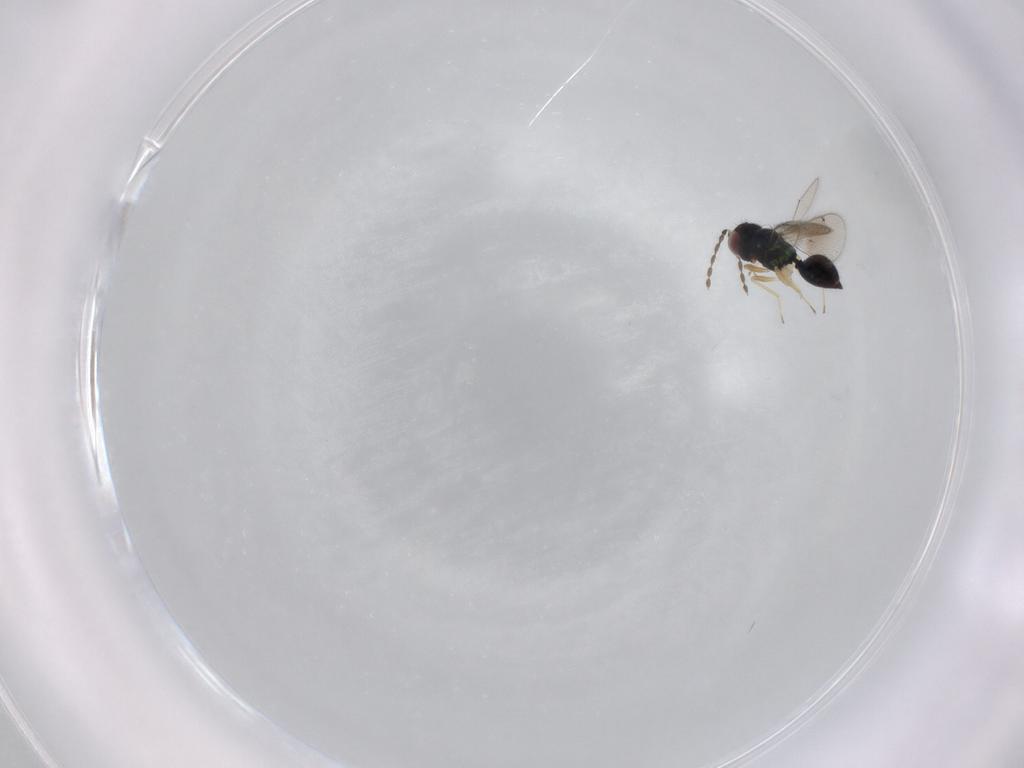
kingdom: Animalia
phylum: Arthropoda
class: Insecta
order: Hymenoptera
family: Eulophidae
